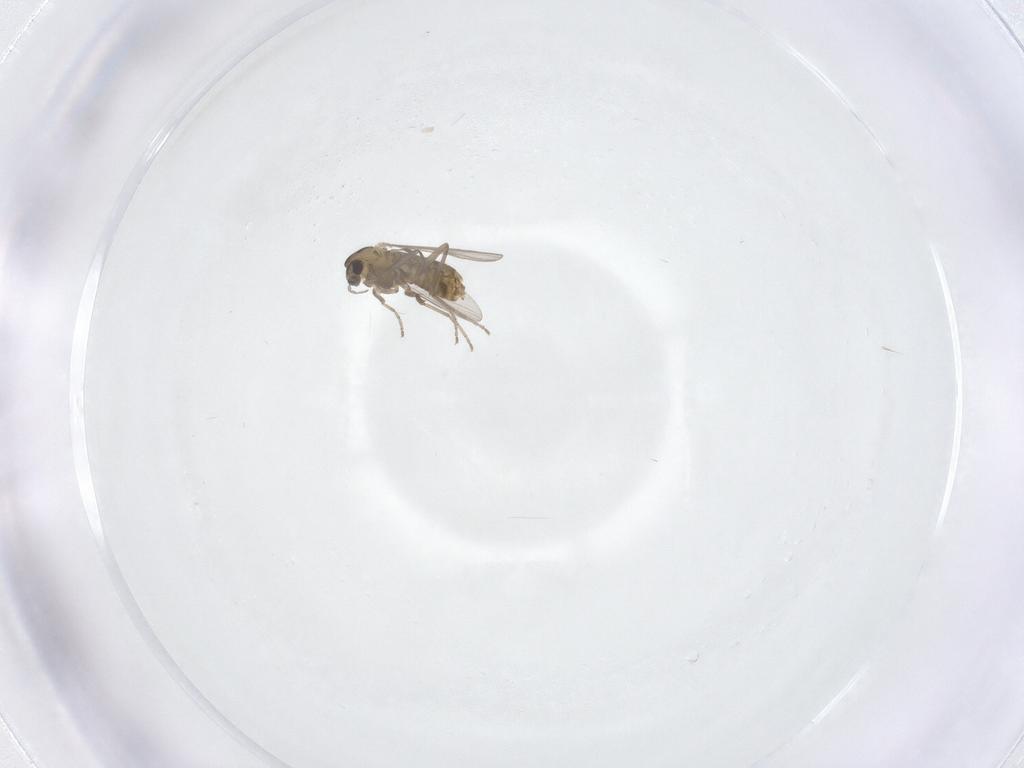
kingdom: Animalia
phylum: Arthropoda
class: Insecta
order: Diptera
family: Chironomidae
